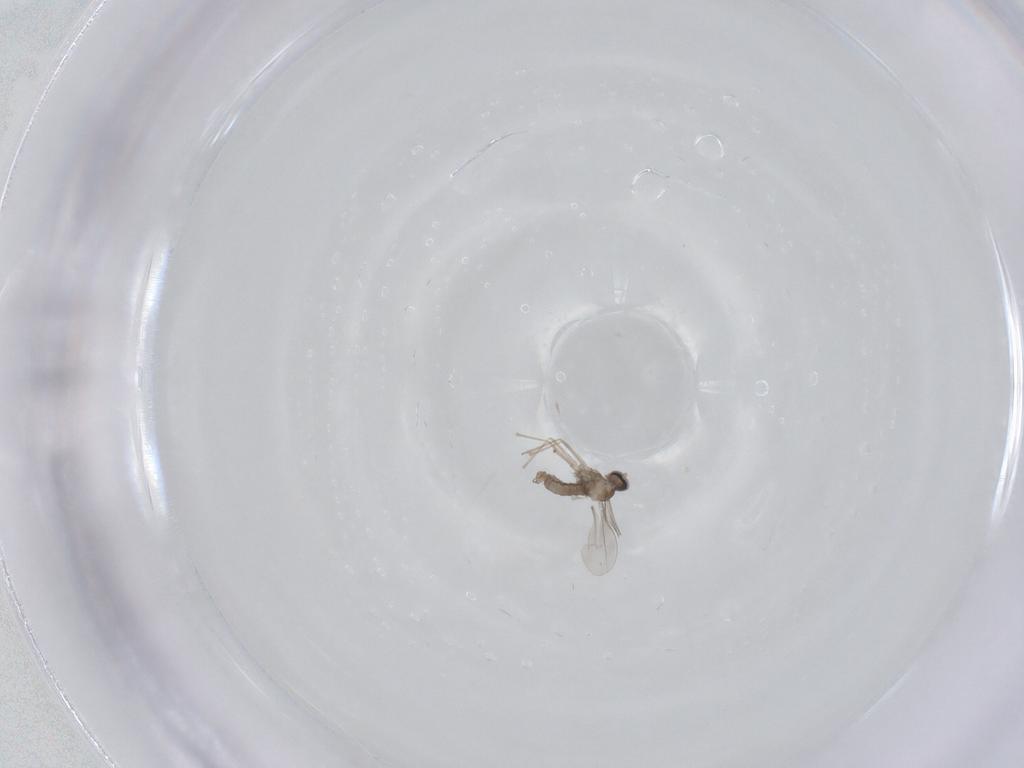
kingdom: Animalia
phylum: Arthropoda
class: Insecta
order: Diptera
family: Cecidomyiidae
